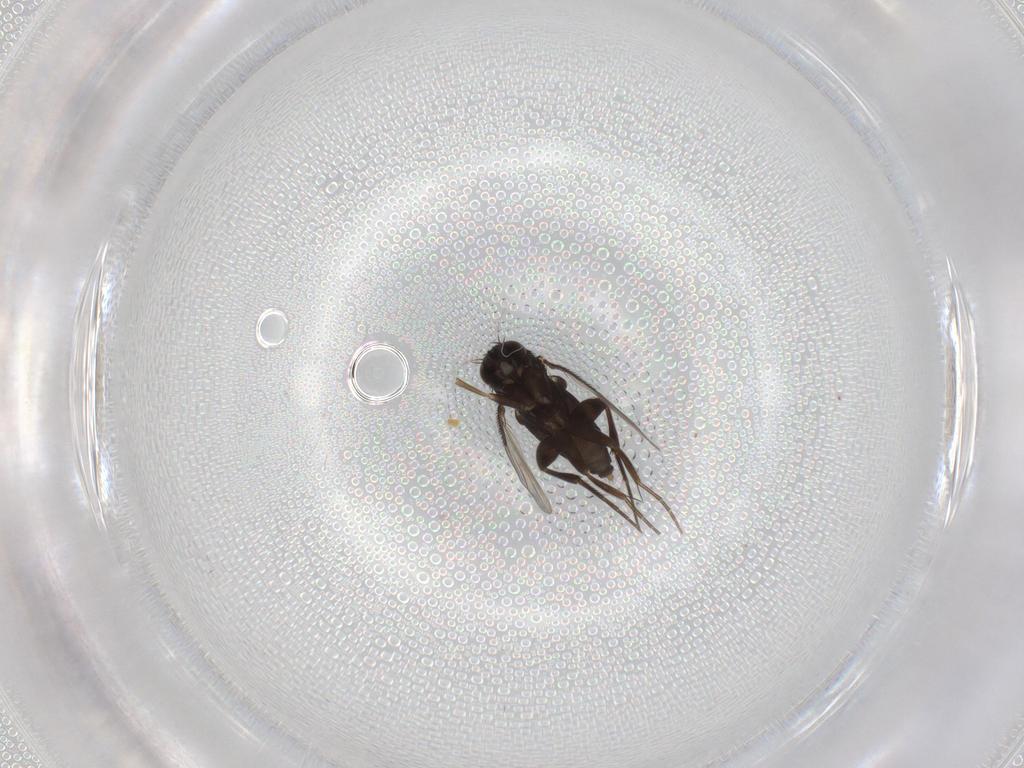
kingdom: Animalia
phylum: Arthropoda
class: Insecta
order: Diptera
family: Phoridae
